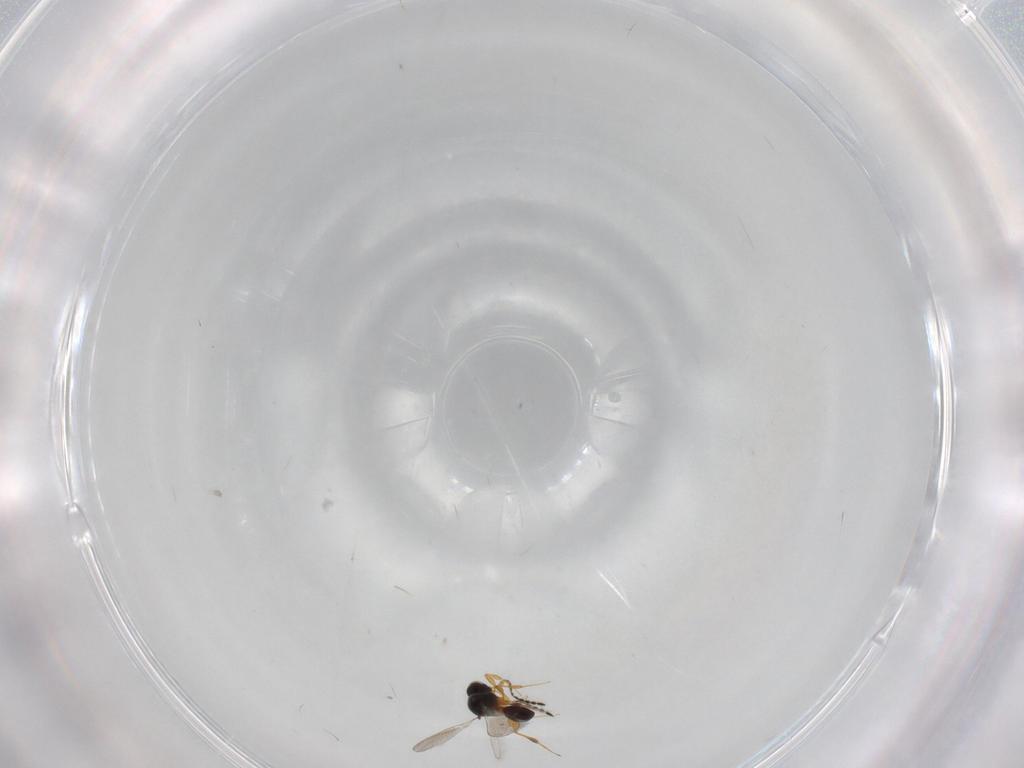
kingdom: Animalia
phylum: Arthropoda
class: Insecta
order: Hymenoptera
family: Platygastridae
